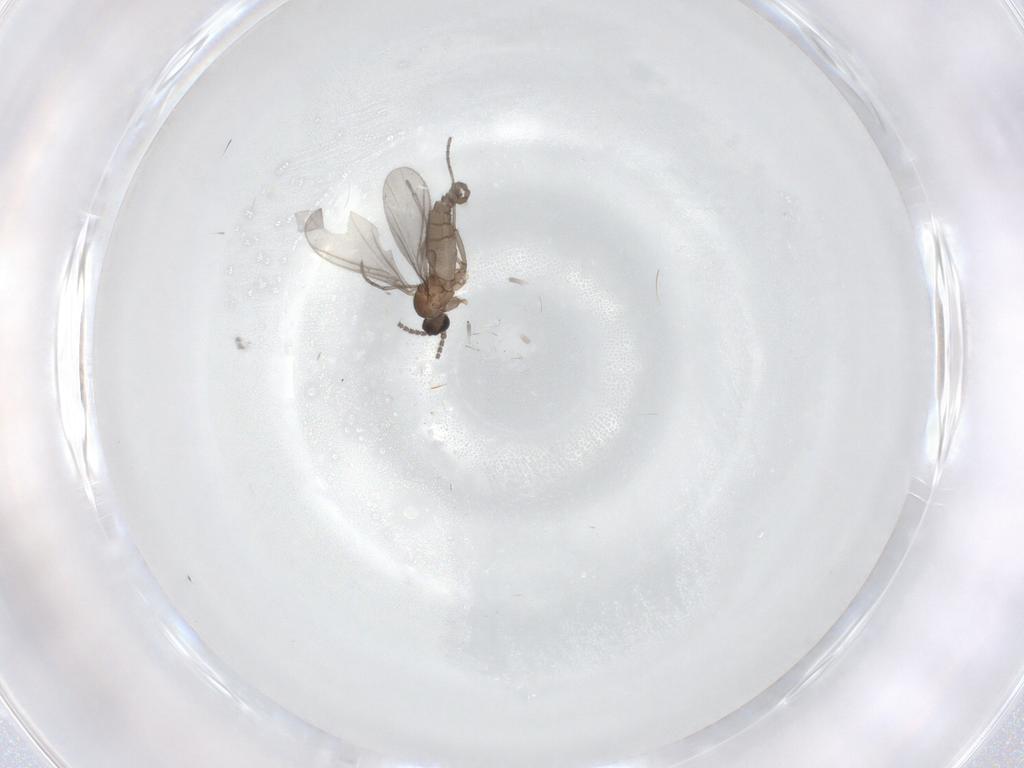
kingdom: Animalia
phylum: Arthropoda
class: Insecta
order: Diptera
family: Sciaridae
